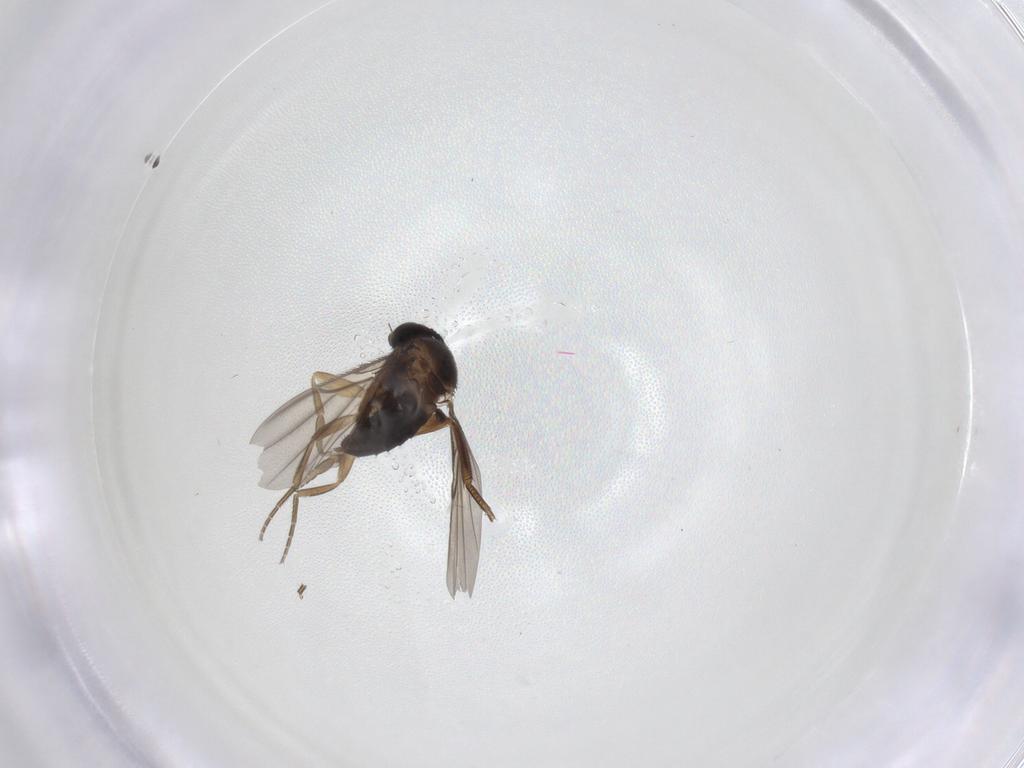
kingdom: Animalia
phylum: Arthropoda
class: Insecta
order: Diptera
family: Phoridae
